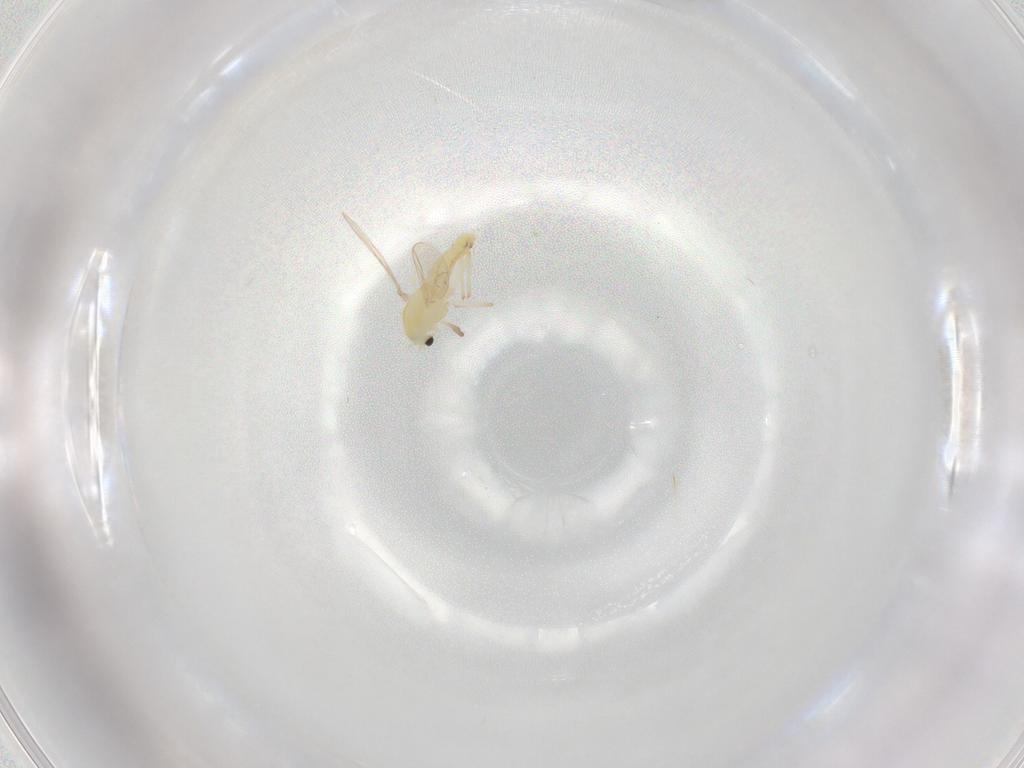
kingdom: Animalia
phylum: Arthropoda
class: Insecta
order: Diptera
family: Chironomidae
